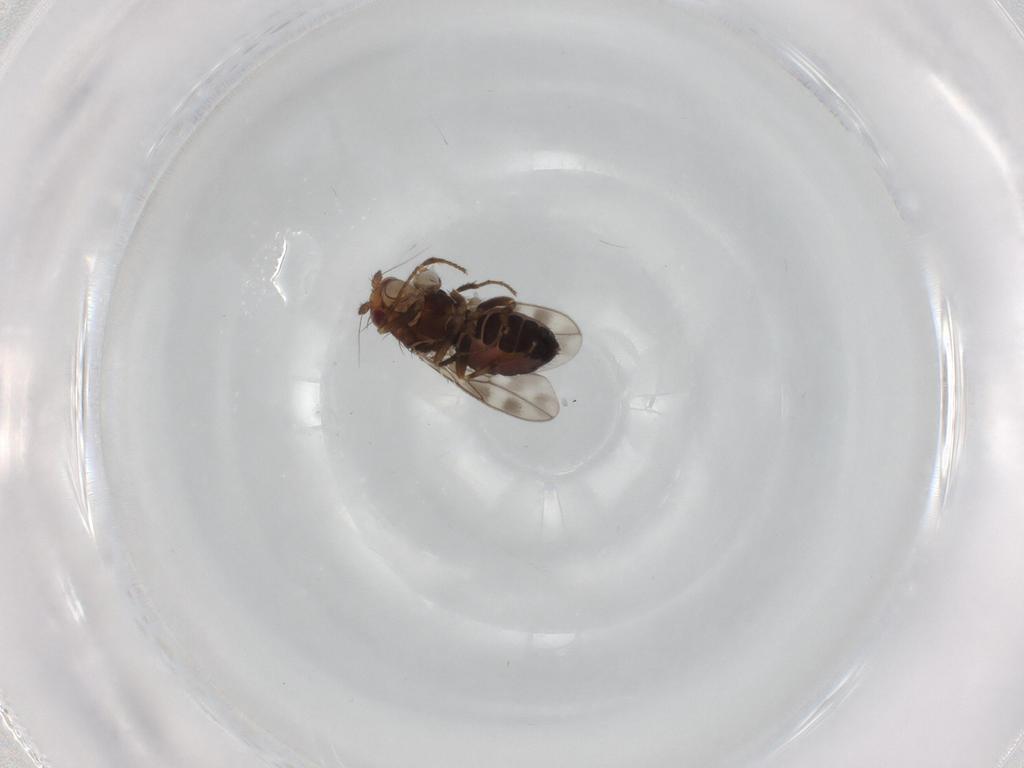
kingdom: Animalia
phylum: Arthropoda
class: Insecta
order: Diptera
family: Sphaeroceridae
